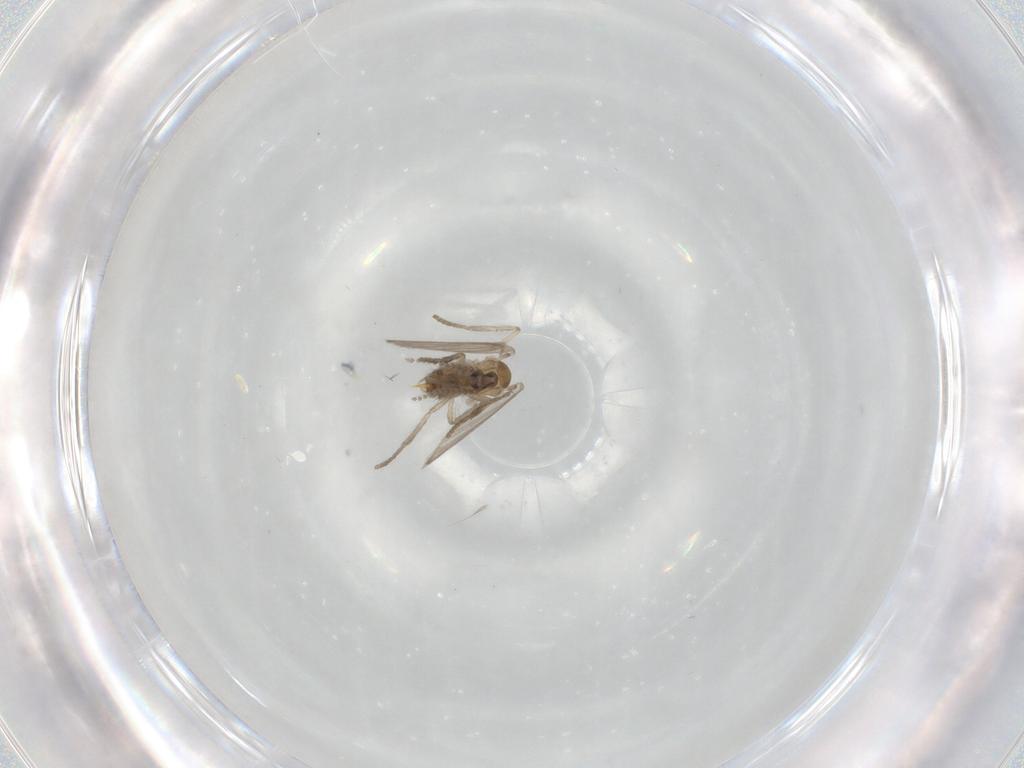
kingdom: Animalia
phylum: Arthropoda
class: Insecta
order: Diptera
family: Psychodidae
